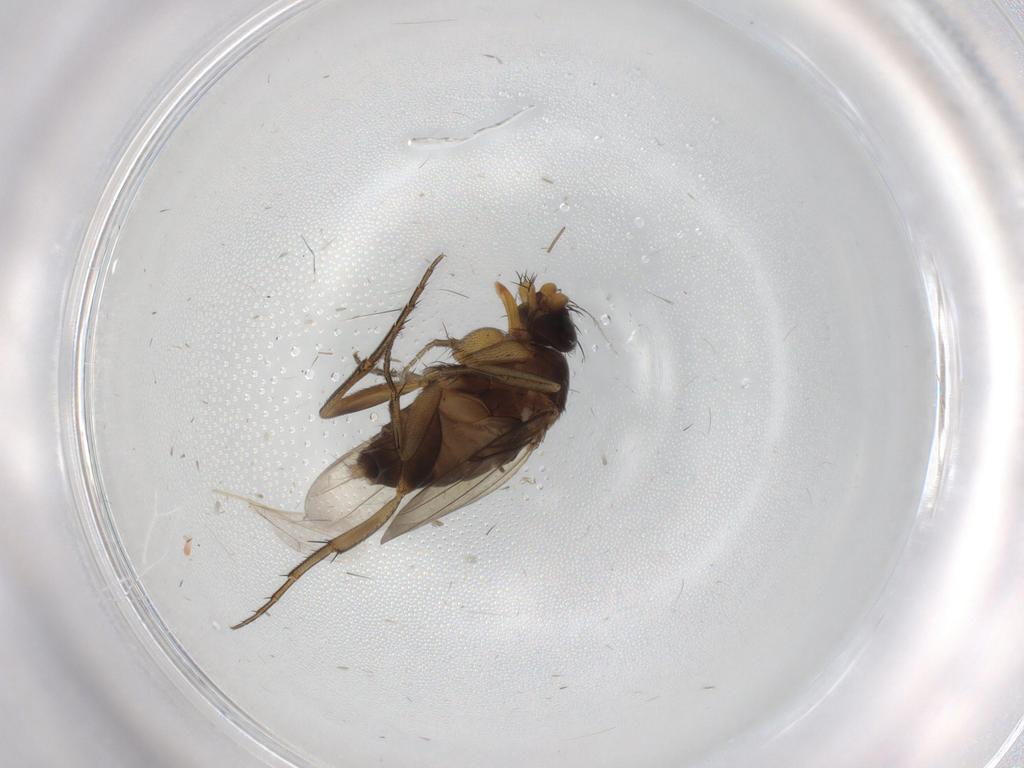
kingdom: Animalia
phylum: Arthropoda
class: Insecta
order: Diptera
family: Phoridae
